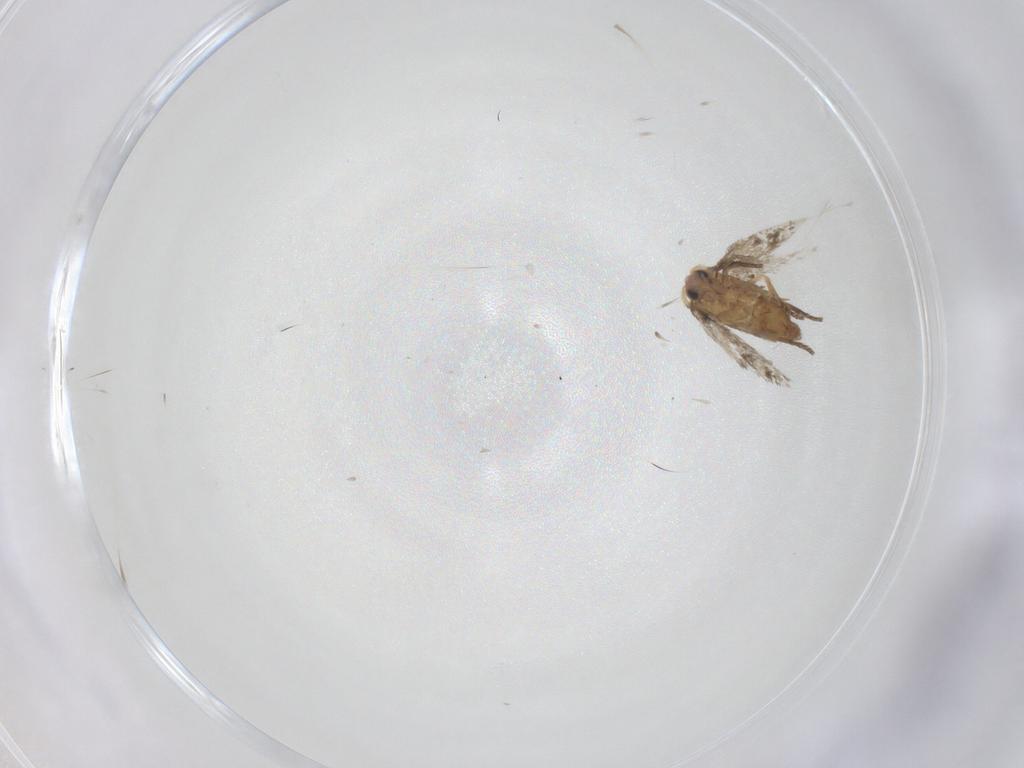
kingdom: Animalia
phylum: Arthropoda
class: Insecta
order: Lepidoptera
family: Nepticulidae
